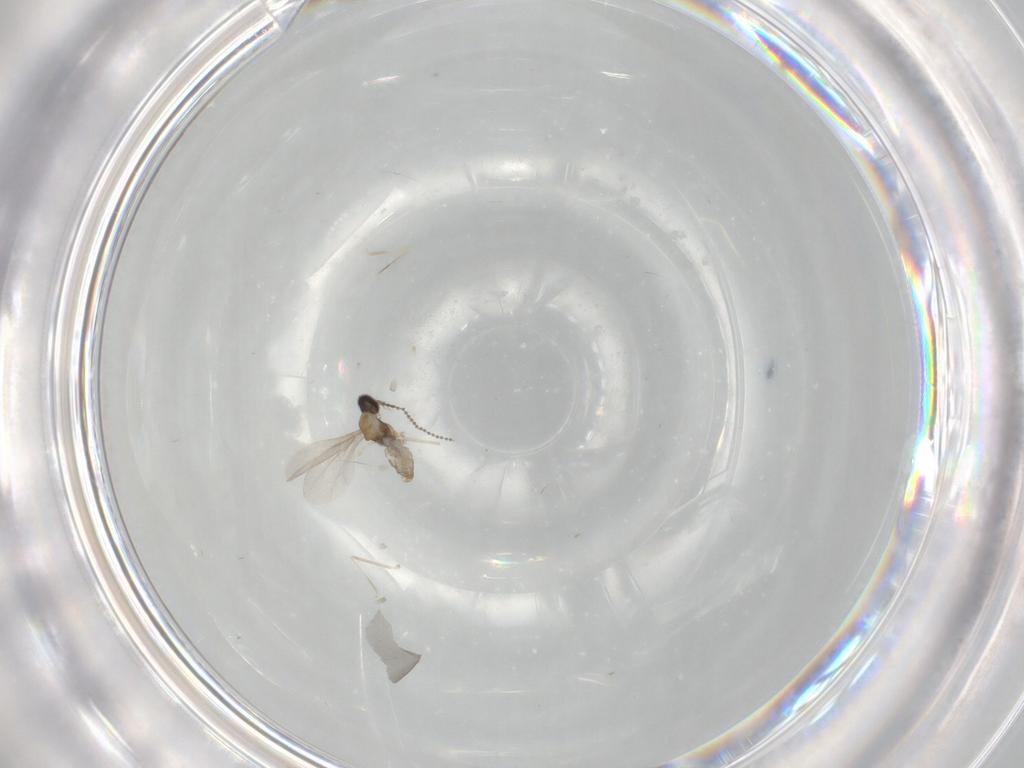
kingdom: Animalia
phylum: Arthropoda
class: Insecta
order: Diptera
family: Cecidomyiidae
